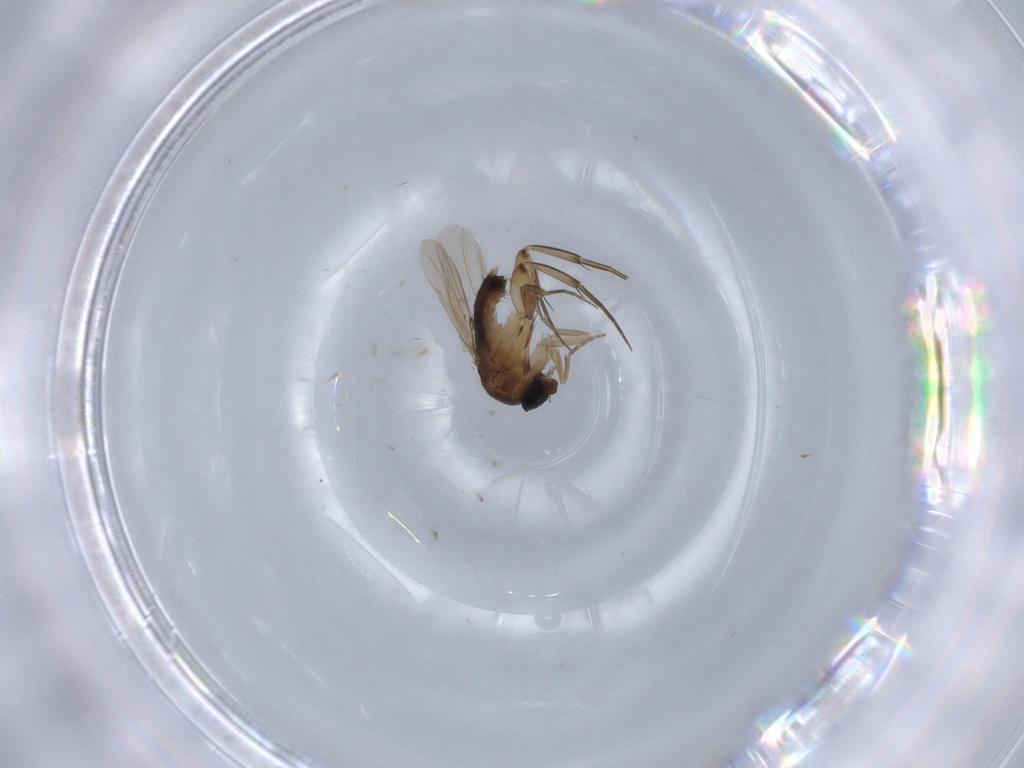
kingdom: Animalia
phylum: Arthropoda
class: Insecta
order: Diptera
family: Phoridae
